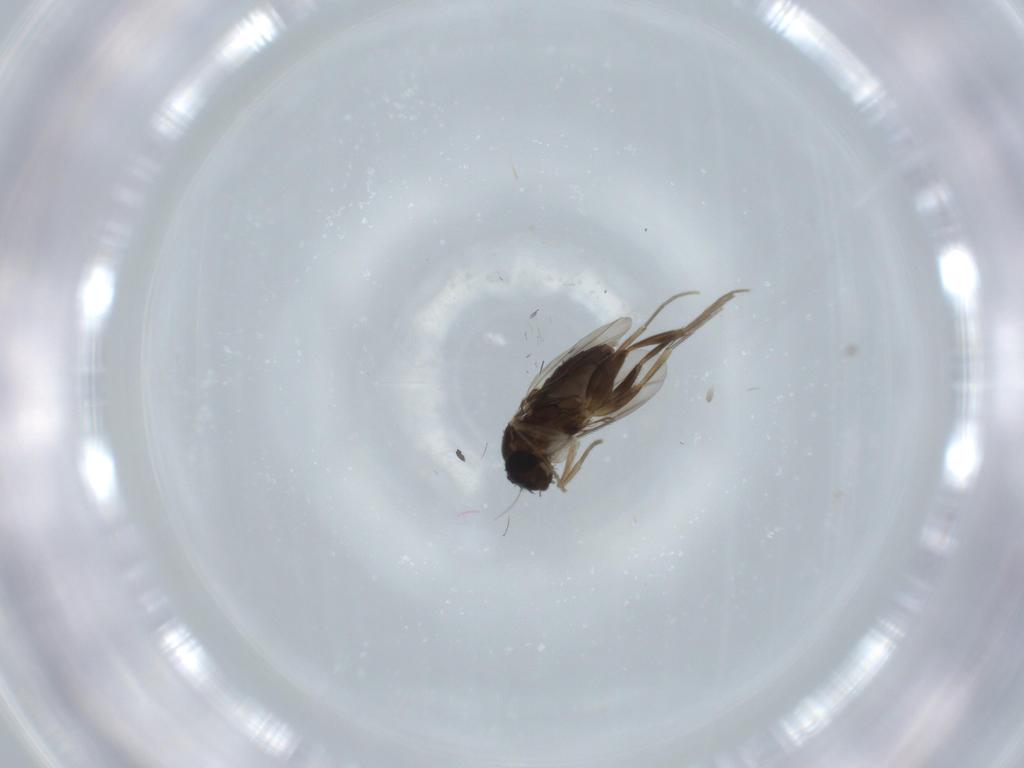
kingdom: Animalia
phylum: Arthropoda
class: Insecta
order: Diptera
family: Phoridae
